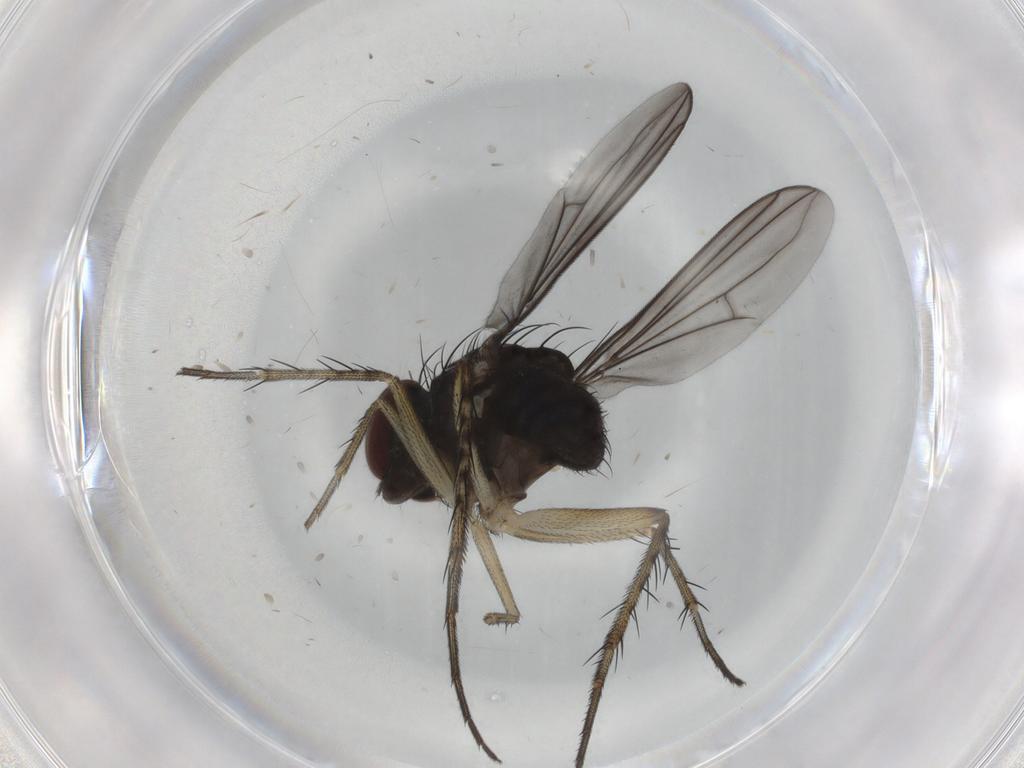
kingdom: Animalia
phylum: Arthropoda
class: Insecta
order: Diptera
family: Dolichopodidae
